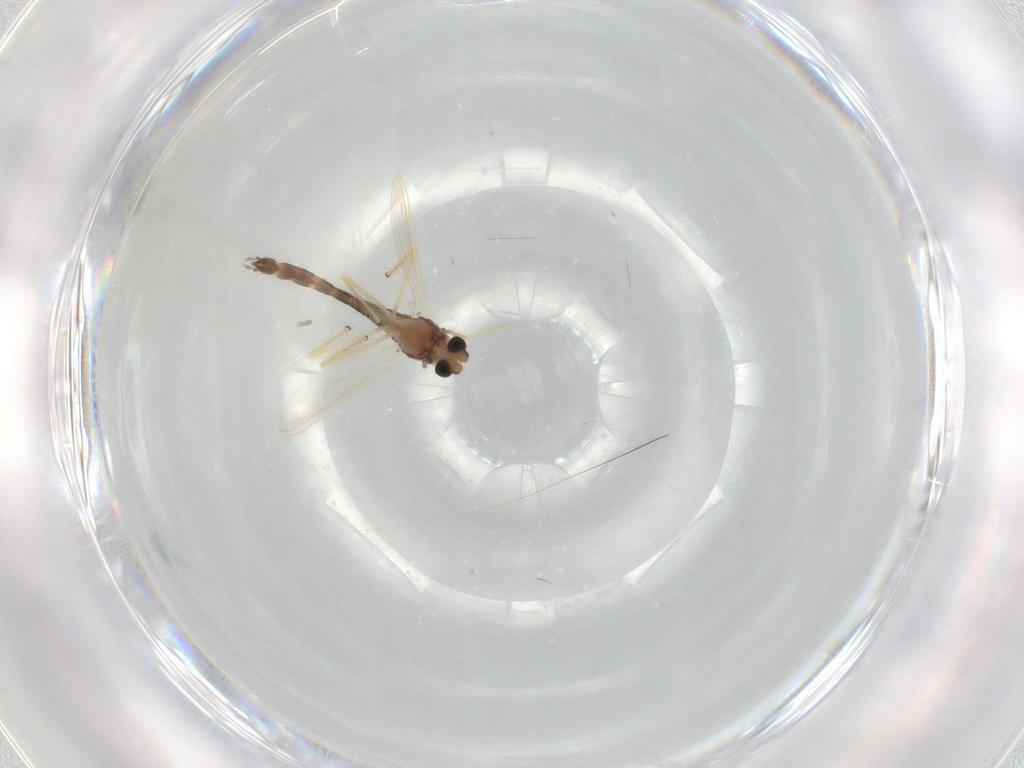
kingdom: Animalia
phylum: Arthropoda
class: Insecta
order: Diptera
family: Chironomidae
